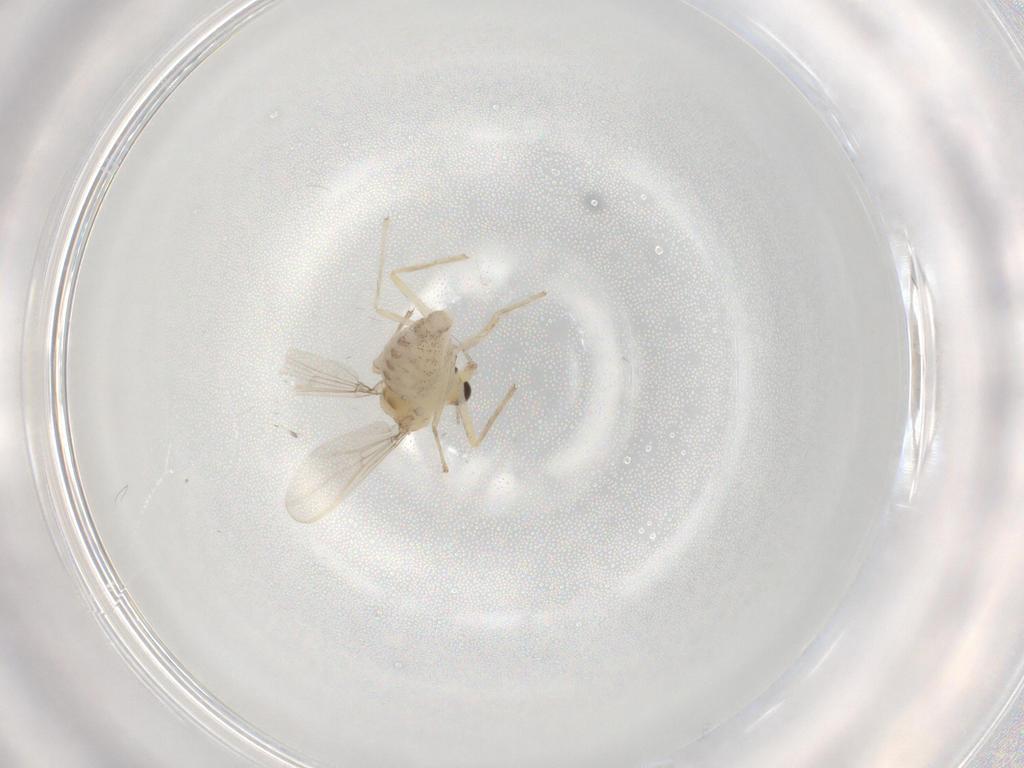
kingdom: Animalia
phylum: Arthropoda
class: Insecta
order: Diptera
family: Chironomidae
